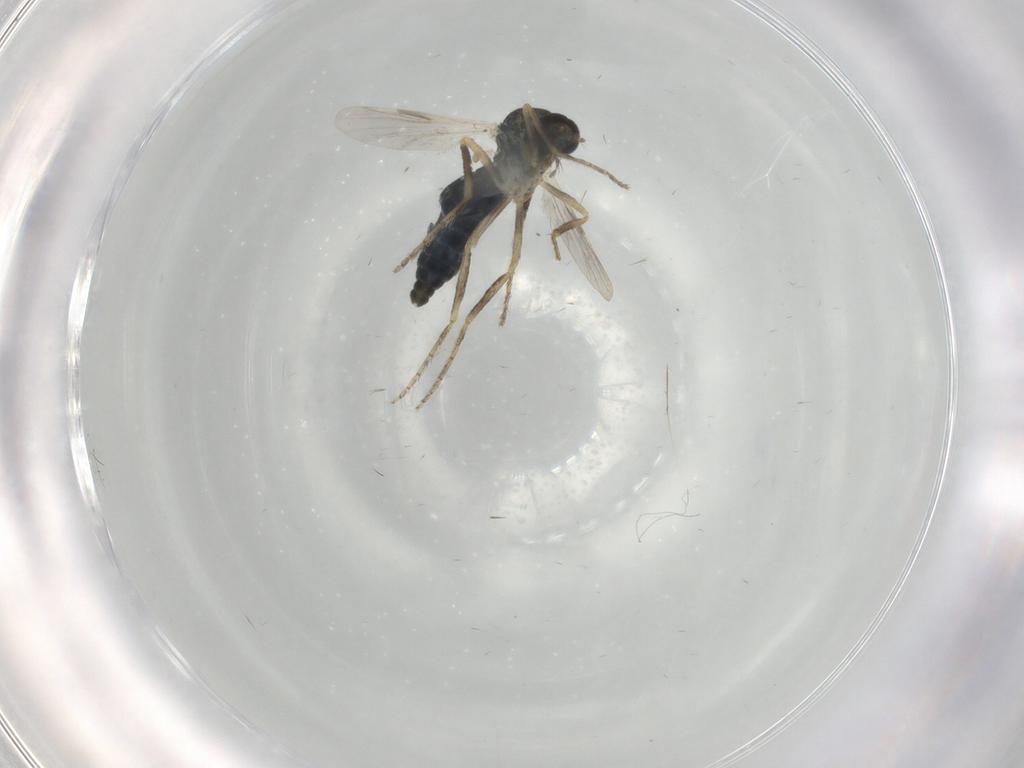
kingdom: Animalia
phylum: Arthropoda
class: Insecta
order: Diptera
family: Ceratopogonidae
